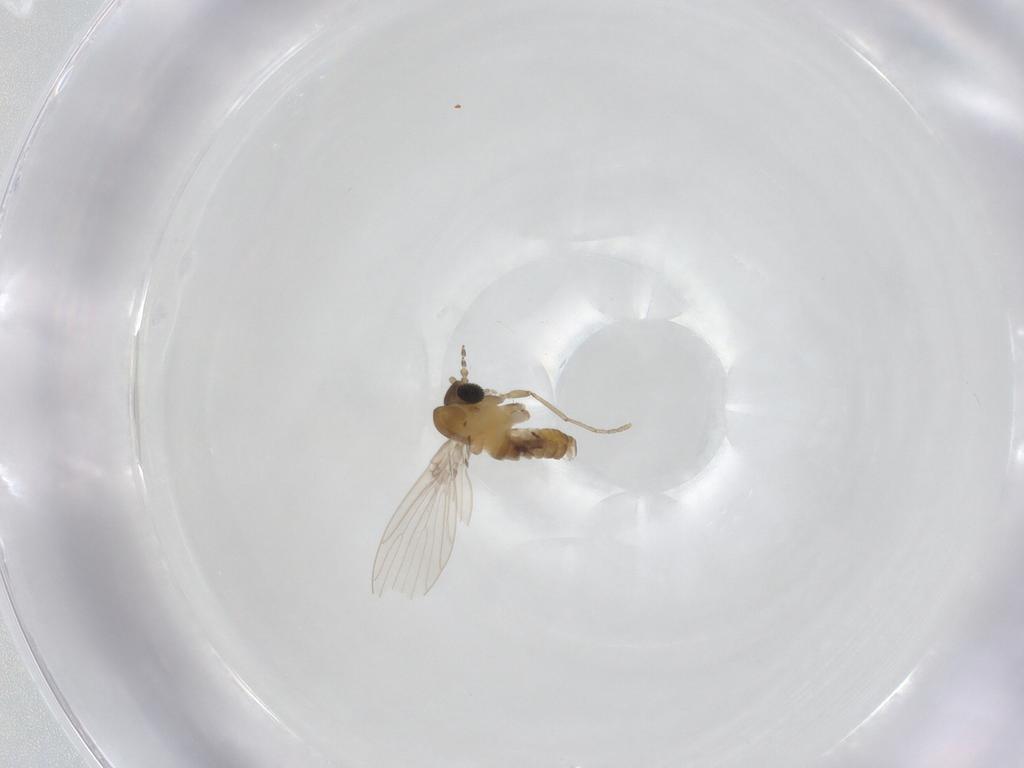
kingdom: Animalia
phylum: Arthropoda
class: Insecta
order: Diptera
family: Psychodidae
